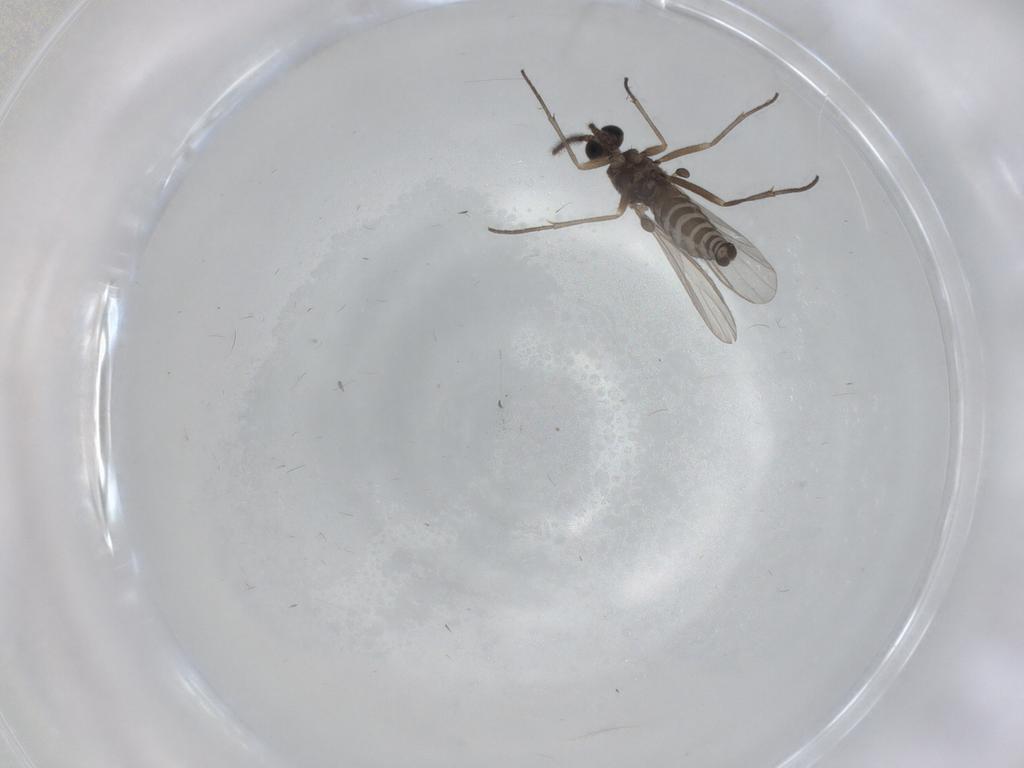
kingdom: Animalia
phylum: Arthropoda
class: Insecta
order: Diptera
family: Sciaridae
